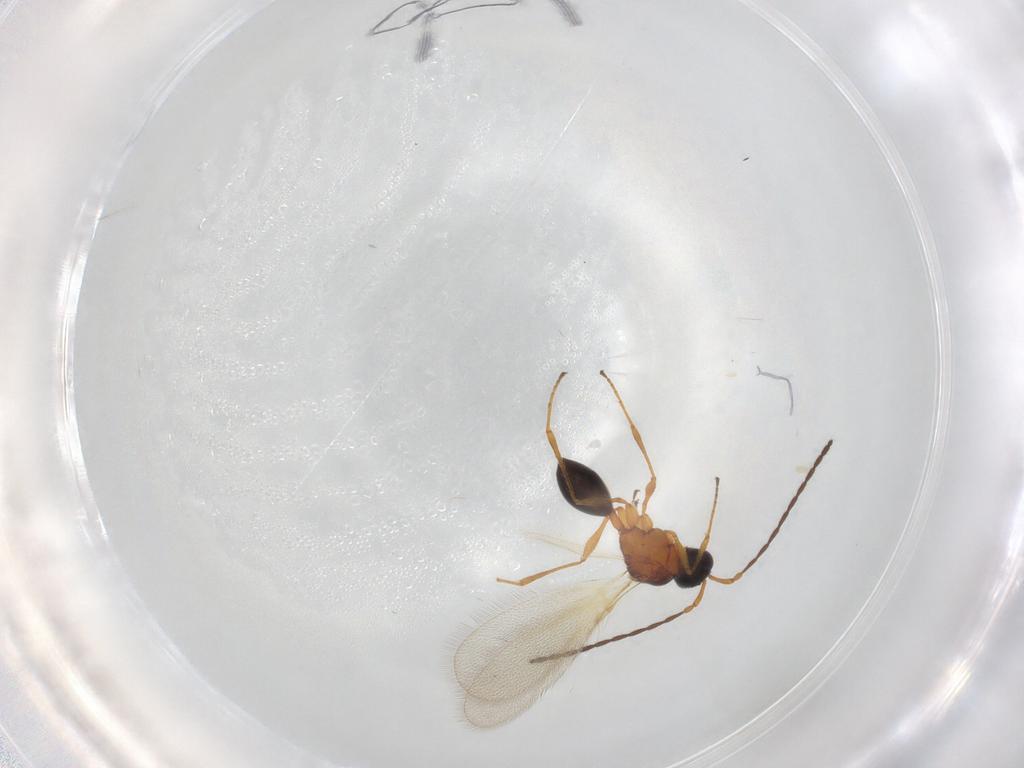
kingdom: Animalia
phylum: Arthropoda
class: Insecta
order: Hymenoptera
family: Diapriidae
